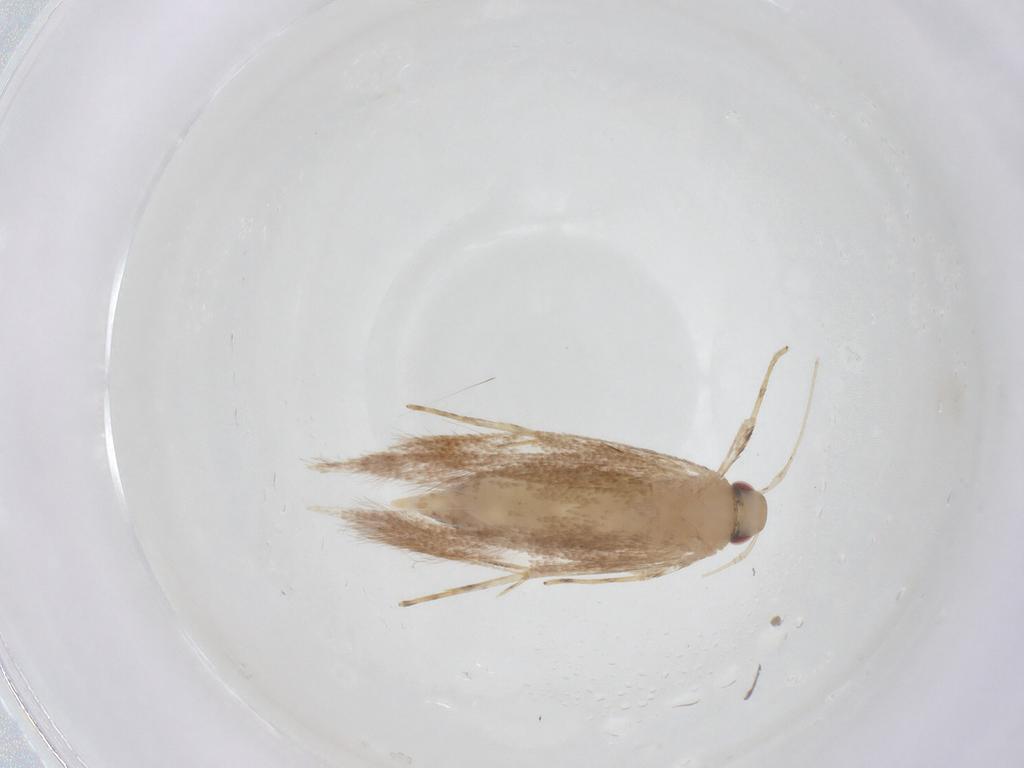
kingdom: Animalia
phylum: Arthropoda
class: Insecta
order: Lepidoptera
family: Cosmopterigidae
